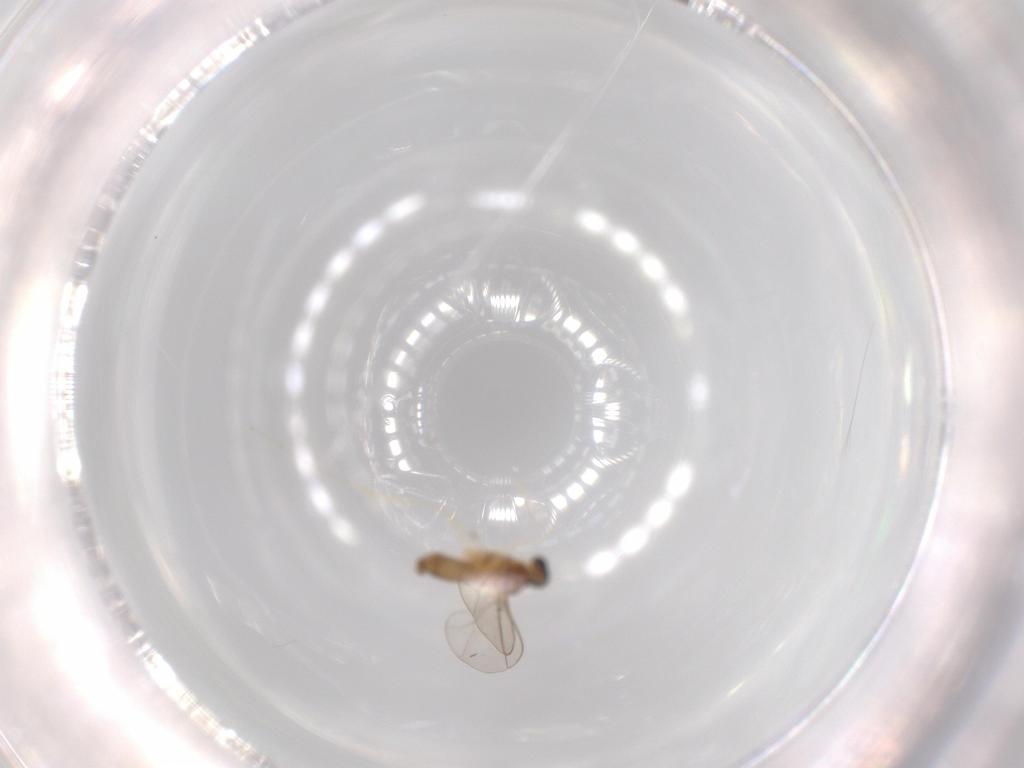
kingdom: Animalia
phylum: Arthropoda
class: Insecta
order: Diptera
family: Cecidomyiidae
